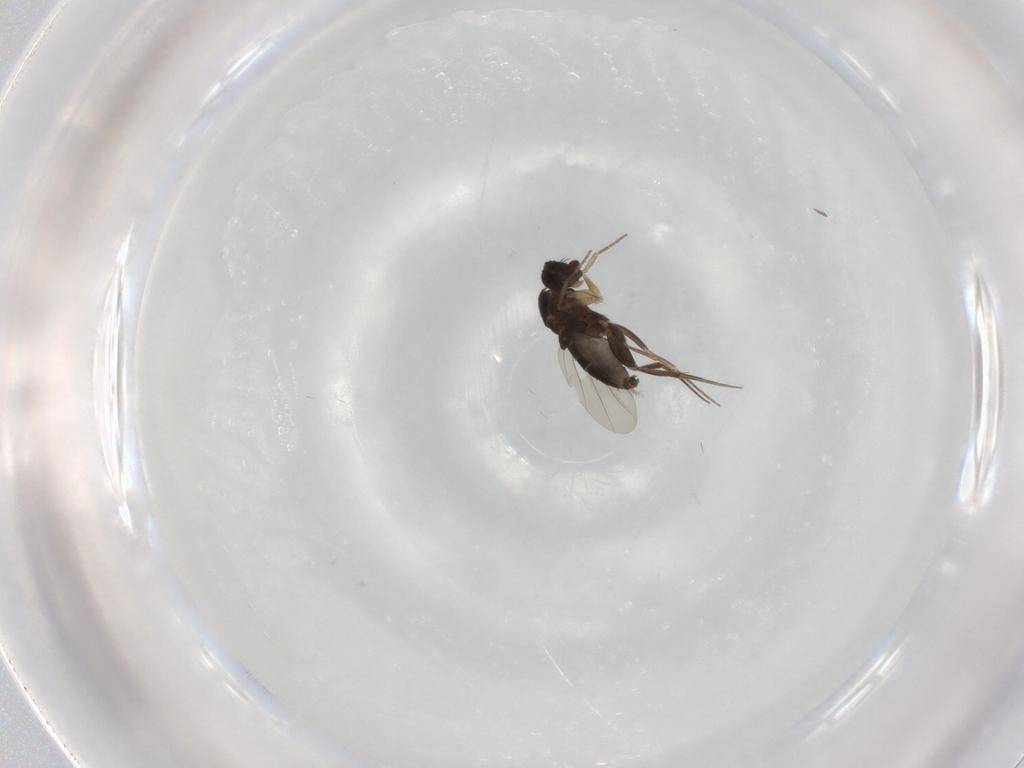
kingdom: Animalia
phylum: Arthropoda
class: Insecta
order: Diptera
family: Phoridae
